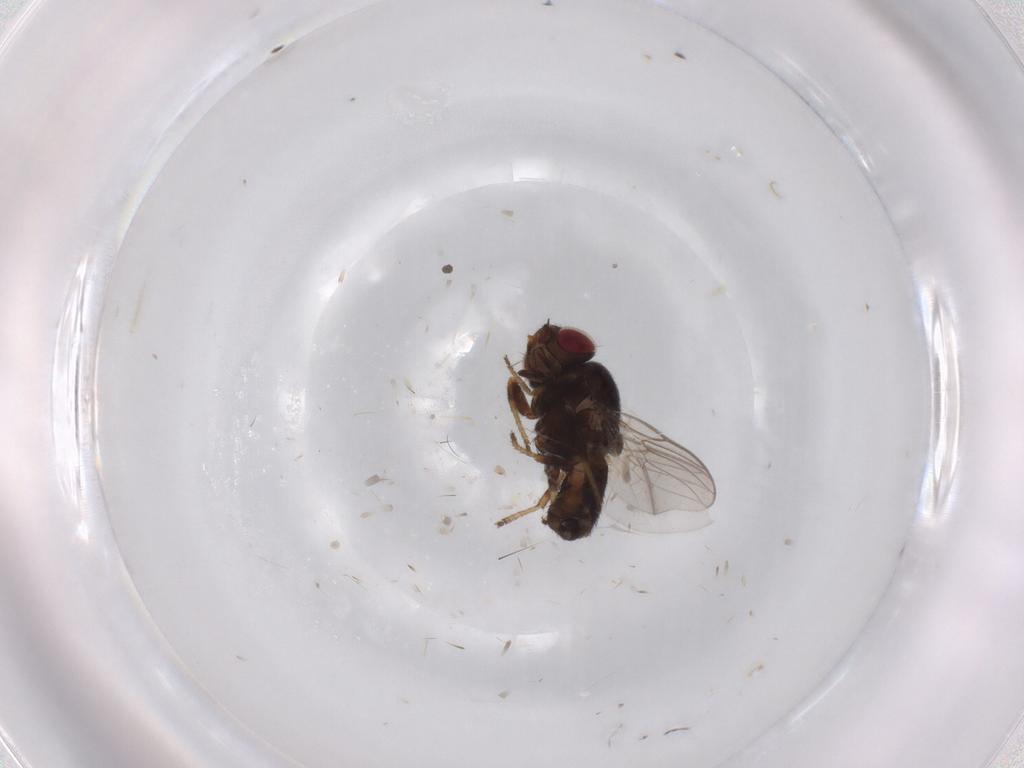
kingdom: Animalia
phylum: Arthropoda
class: Insecta
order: Diptera
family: Chloropidae
